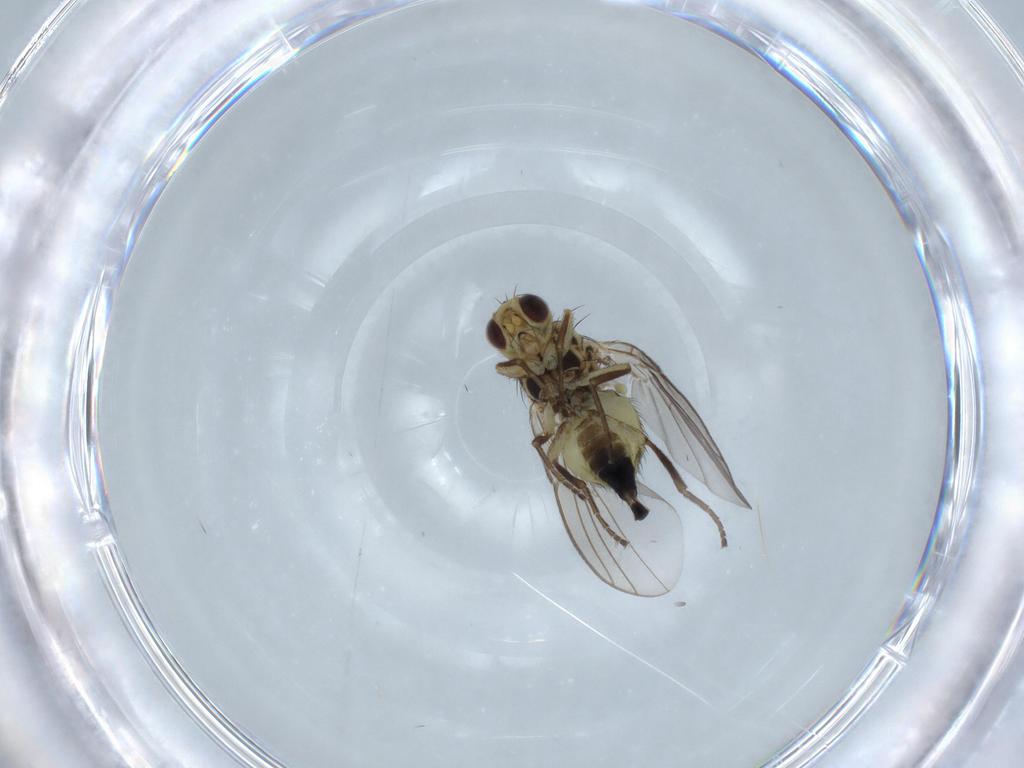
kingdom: Animalia
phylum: Arthropoda
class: Insecta
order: Diptera
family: Agromyzidae
